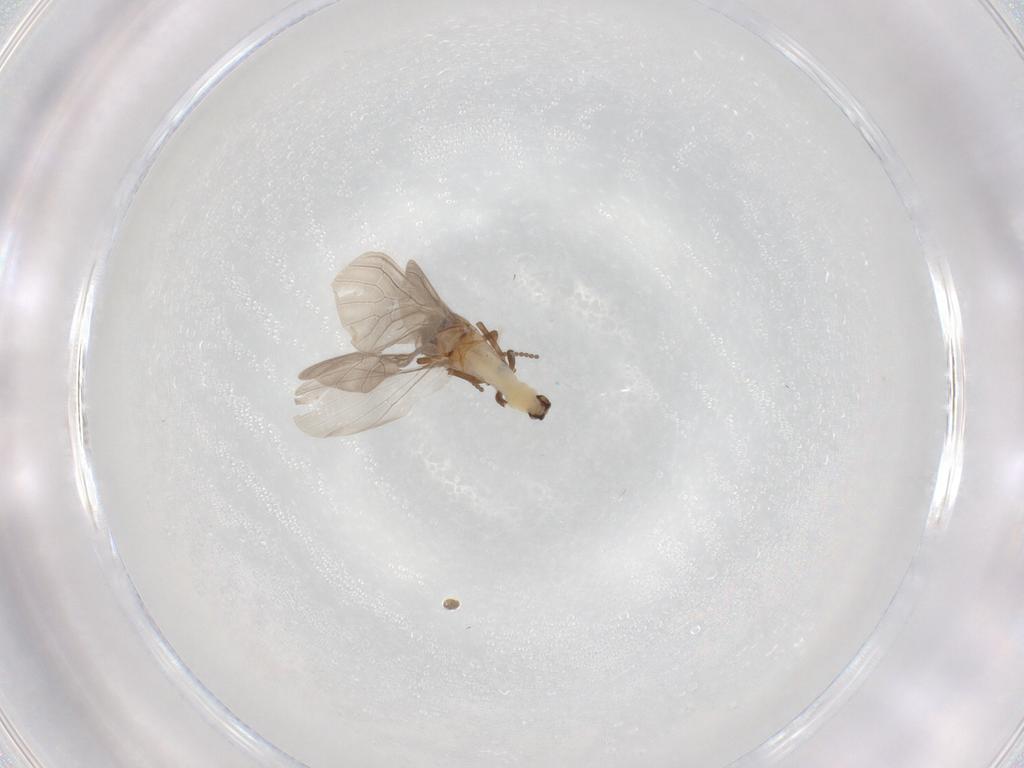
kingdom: Animalia
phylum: Arthropoda
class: Insecta
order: Neuroptera
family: Coniopterygidae
